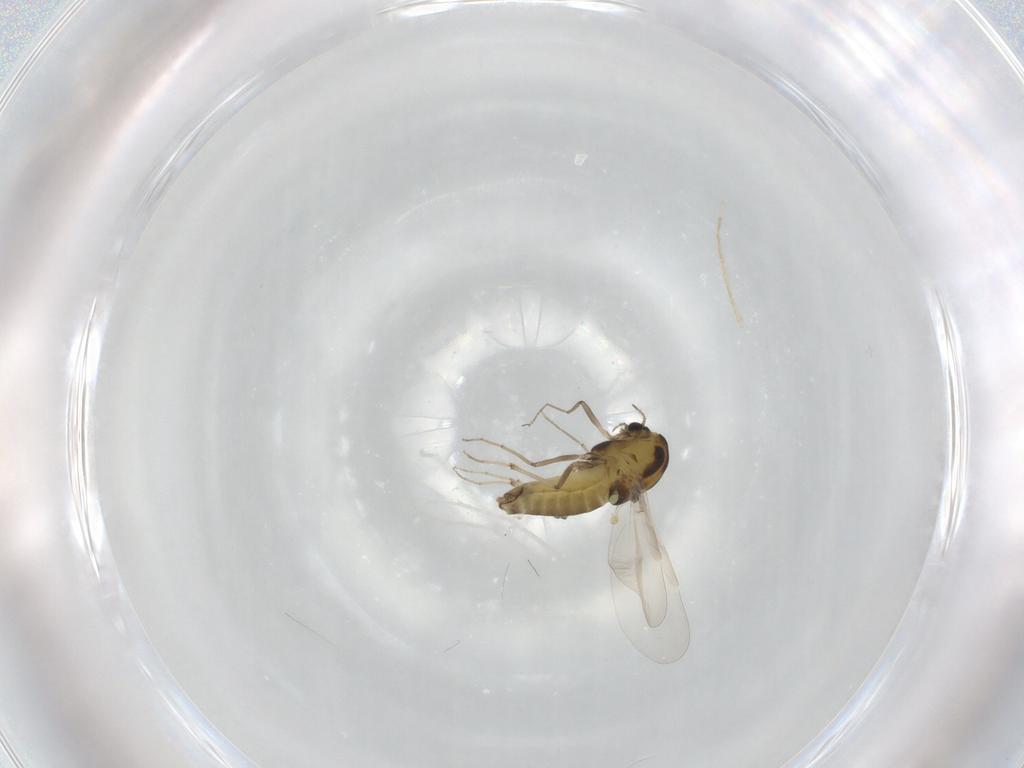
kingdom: Animalia
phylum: Arthropoda
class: Insecta
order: Diptera
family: Chironomidae
